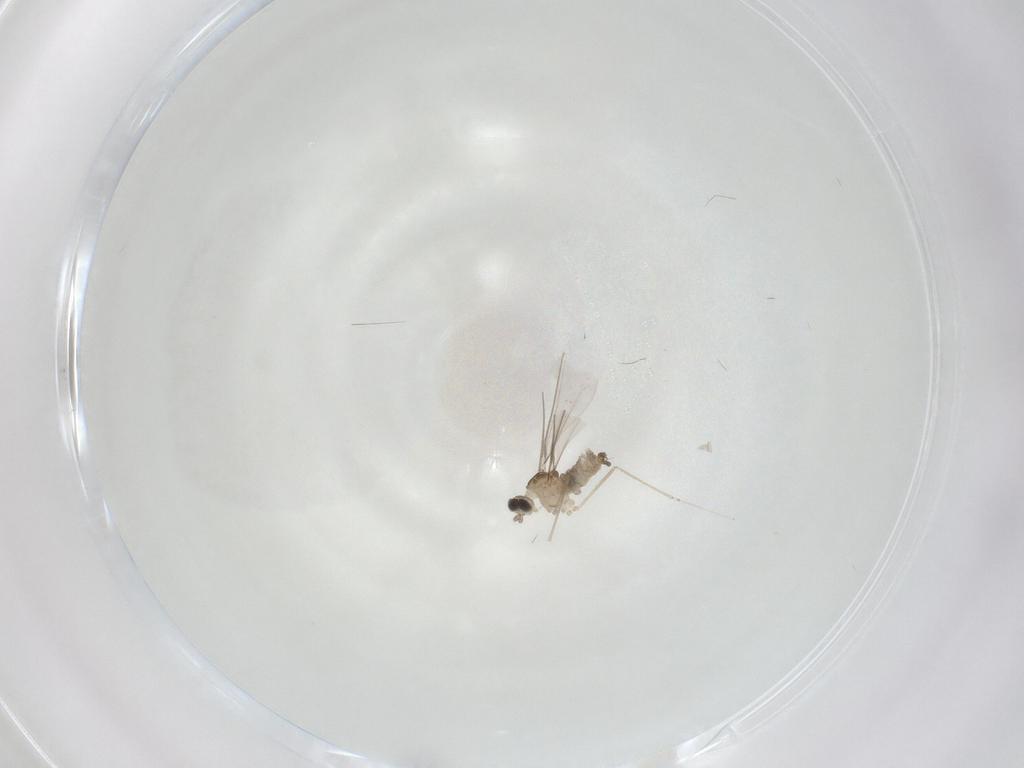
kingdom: Animalia
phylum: Arthropoda
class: Insecta
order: Diptera
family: Cecidomyiidae
